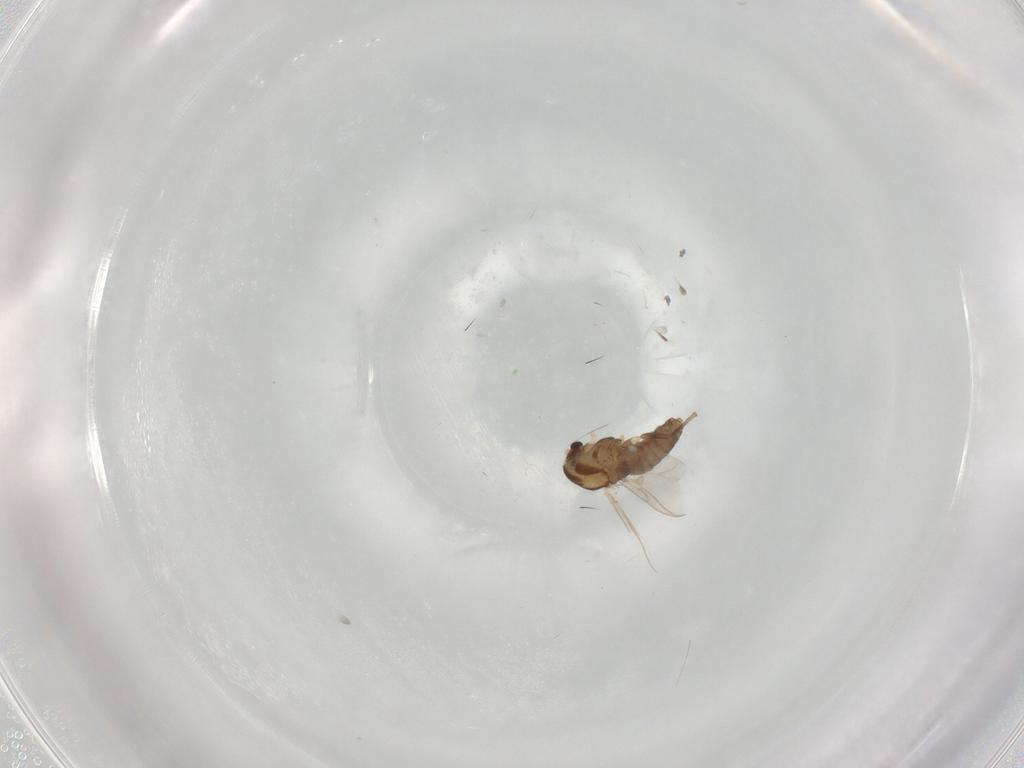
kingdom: Animalia
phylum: Arthropoda
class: Insecta
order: Diptera
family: Chironomidae
